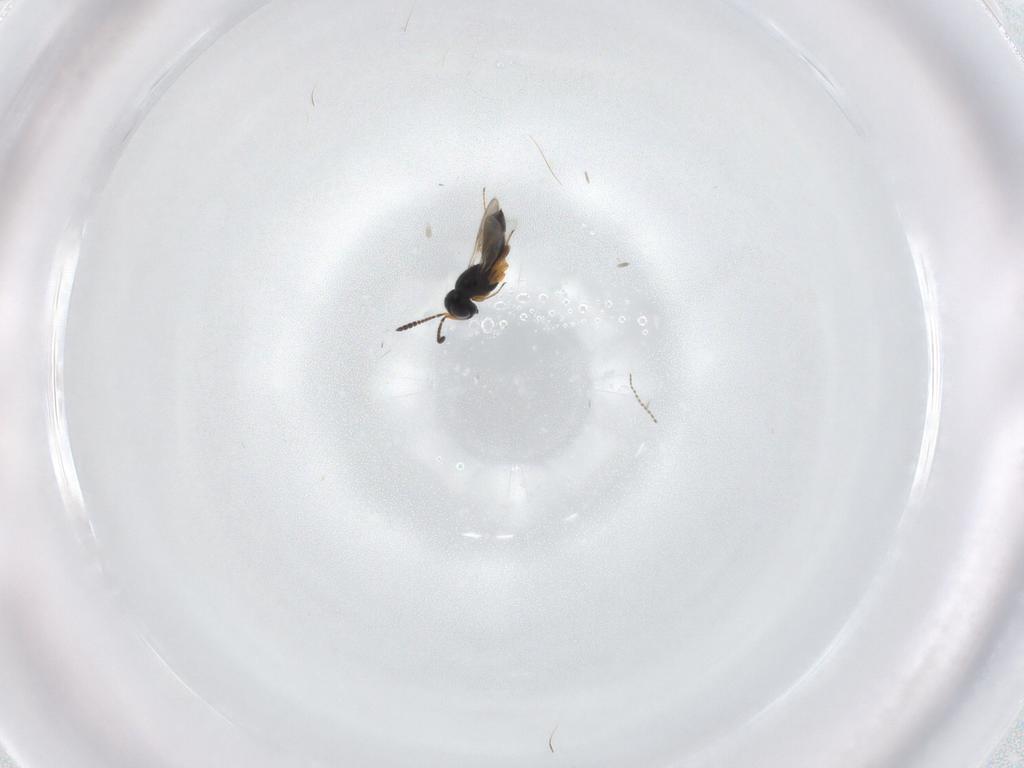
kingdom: Animalia
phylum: Arthropoda
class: Insecta
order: Hymenoptera
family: Scelionidae
